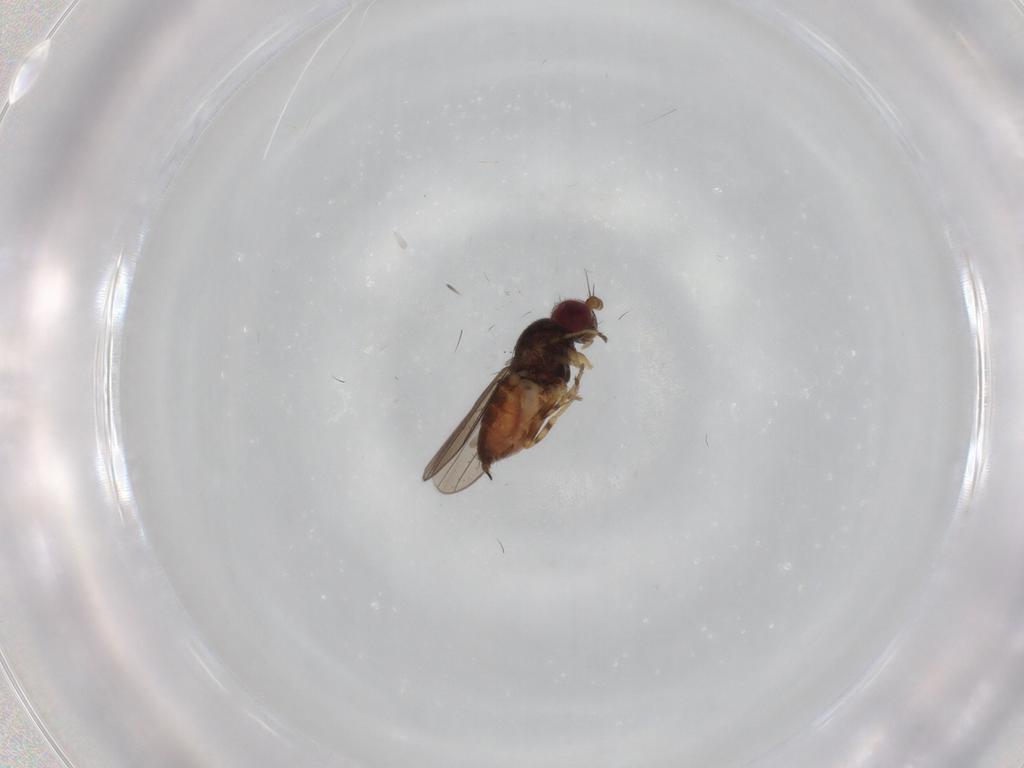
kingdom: Animalia
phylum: Arthropoda
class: Insecta
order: Diptera
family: Chloropidae
